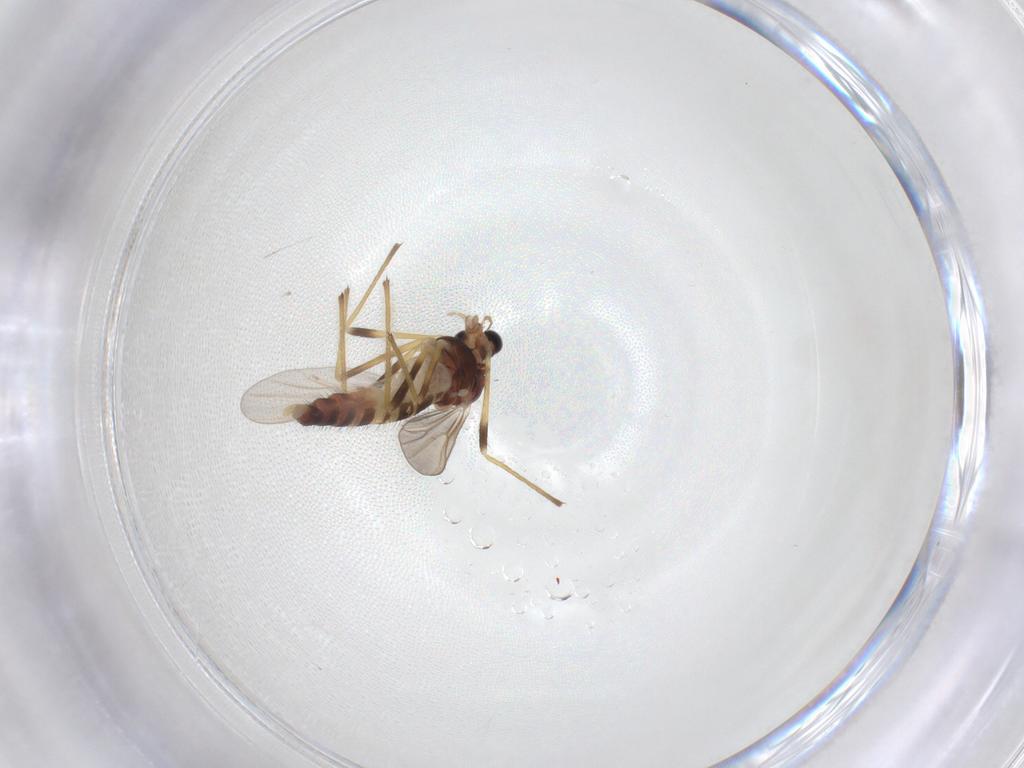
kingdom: Animalia
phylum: Arthropoda
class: Insecta
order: Diptera
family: Chironomidae
